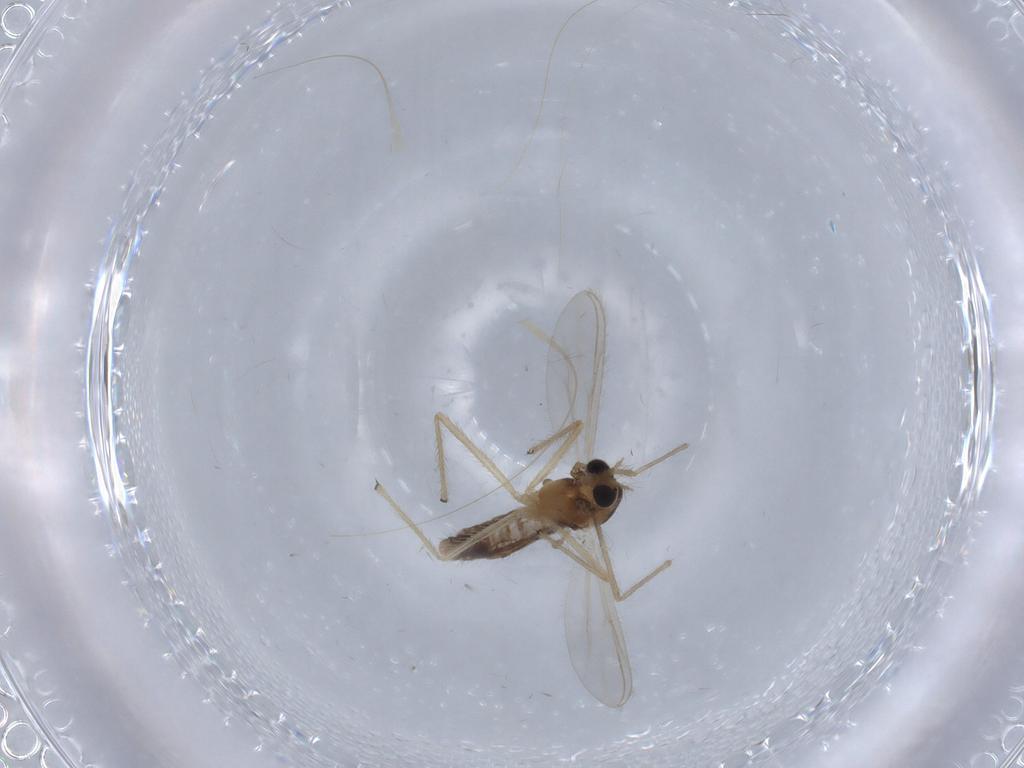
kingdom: Animalia
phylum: Arthropoda
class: Insecta
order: Diptera
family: Chironomidae
